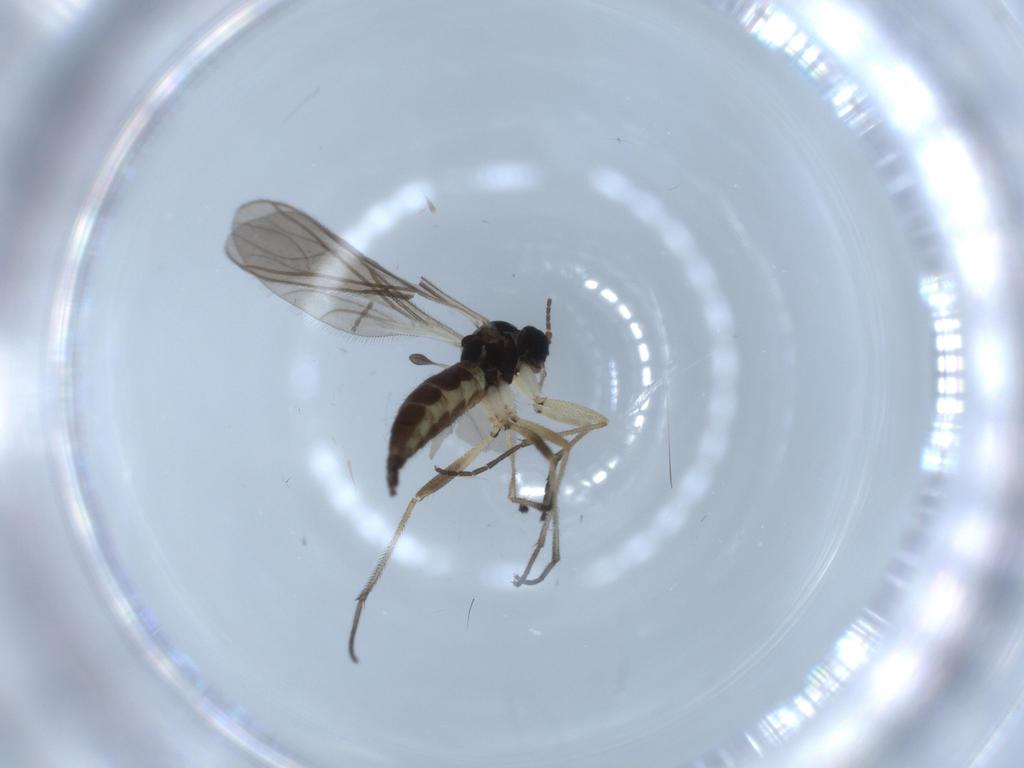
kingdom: Animalia
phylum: Arthropoda
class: Insecta
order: Diptera
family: Sciaridae
